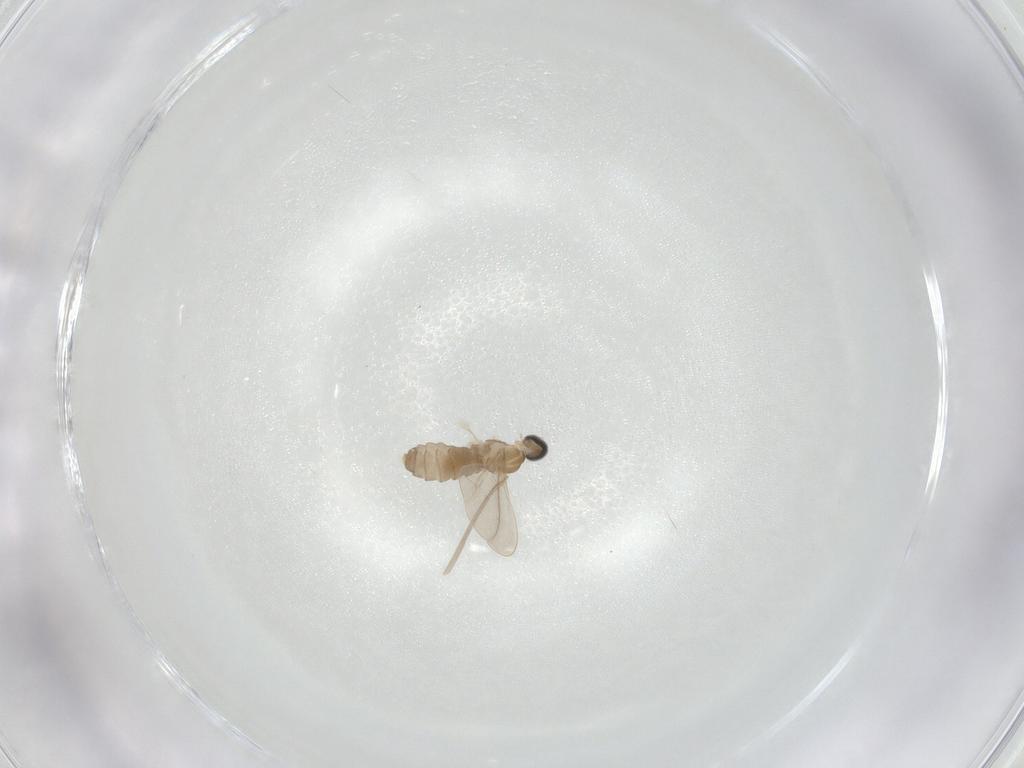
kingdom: Animalia
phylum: Arthropoda
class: Insecta
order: Diptera
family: Cecidomyiidae
